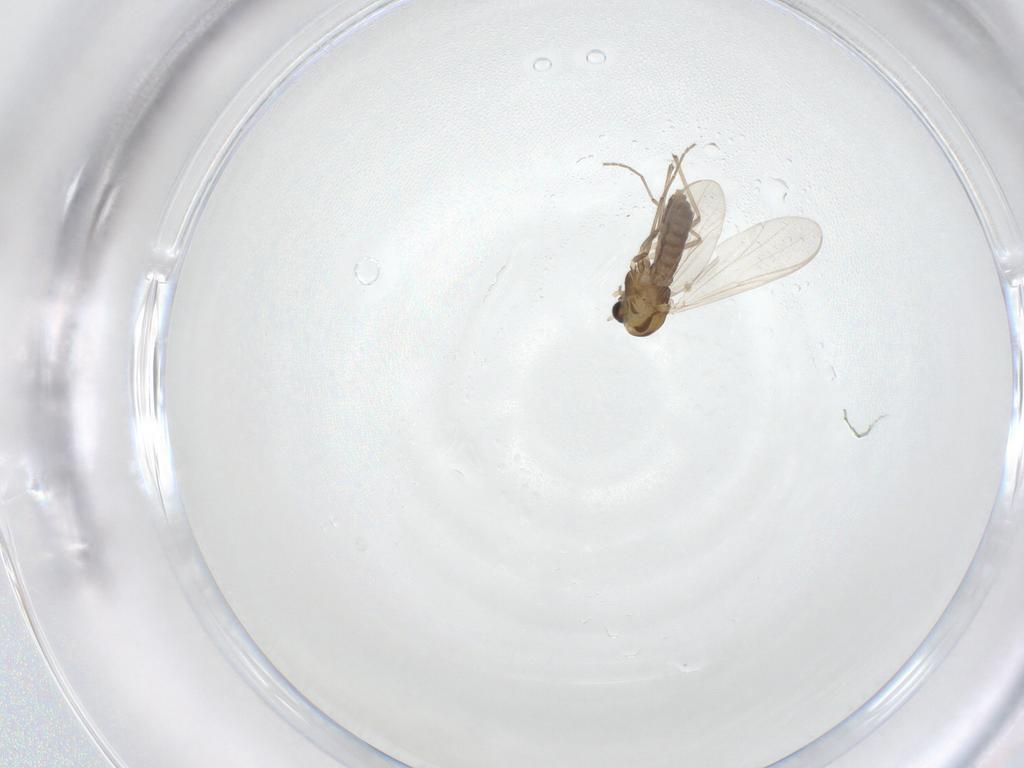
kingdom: Animalia
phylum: Arthropoda
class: Insecta
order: Diptera
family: Chironomidae
